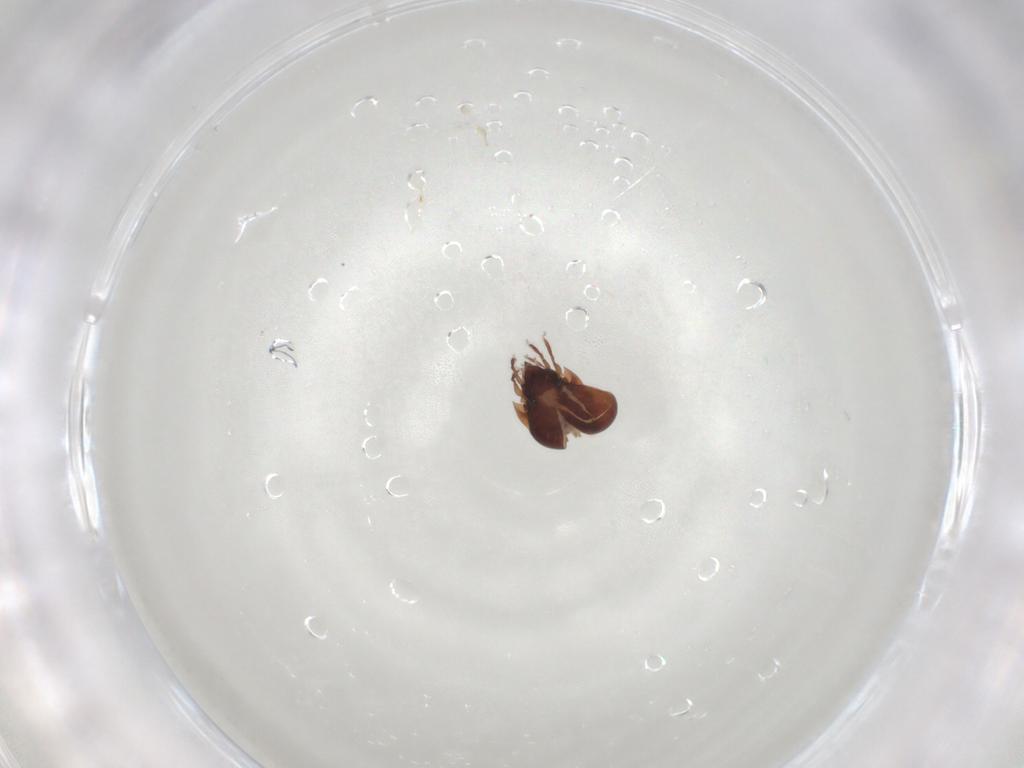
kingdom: Animalia
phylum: Arthropoda
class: Arachnida
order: Sarcoptiformes
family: Humerobatidae
